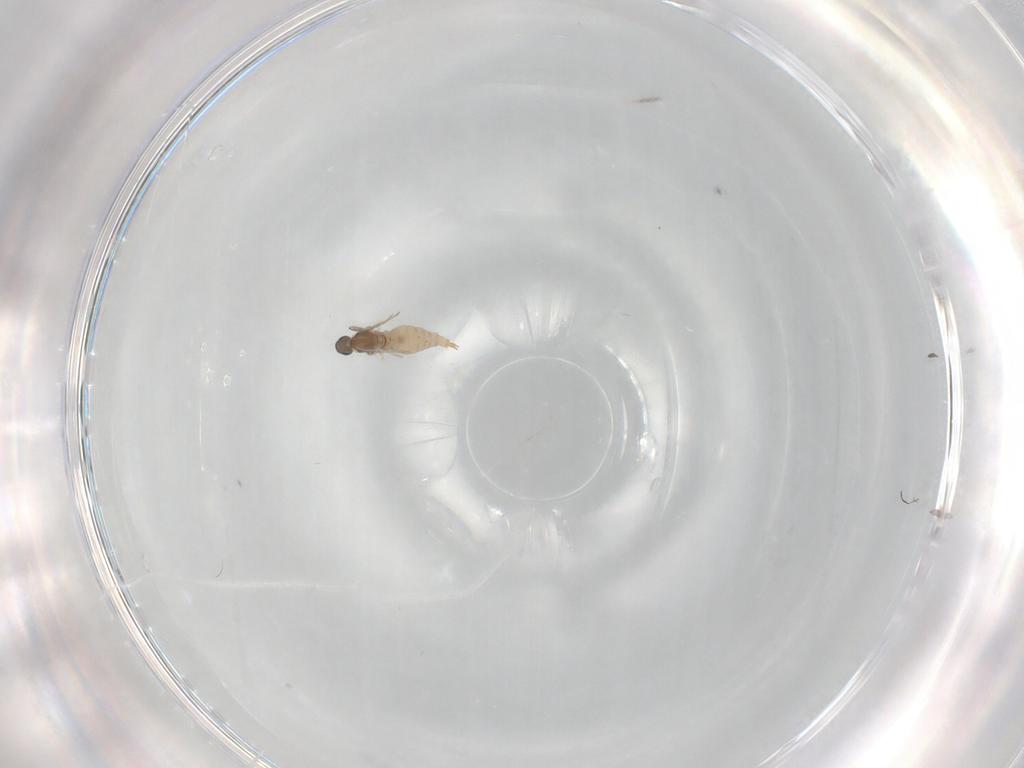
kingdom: Animalia
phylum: Arthropoda
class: Insecta
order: Diptera
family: Cecidomyiidae
